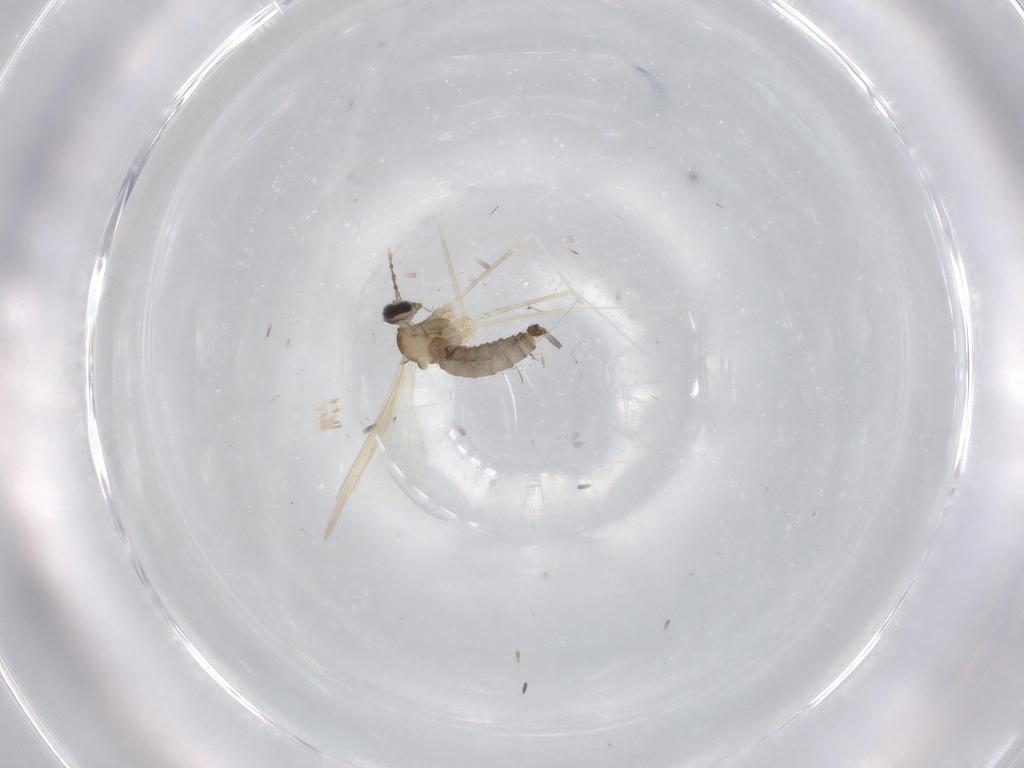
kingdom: Animalia
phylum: Arthropoda
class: Insecta
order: Diptera
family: Cecidomyiidae
